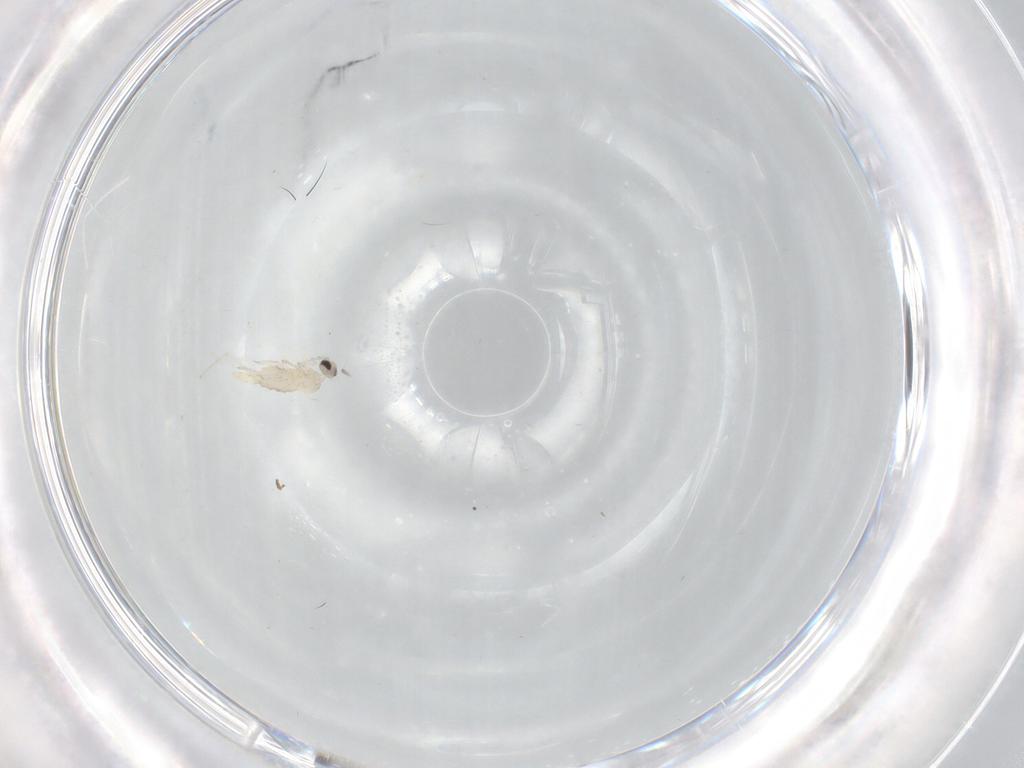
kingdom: Animalia
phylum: Arthropoda
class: Insecta
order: Diptera
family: Cecidomyiidae
